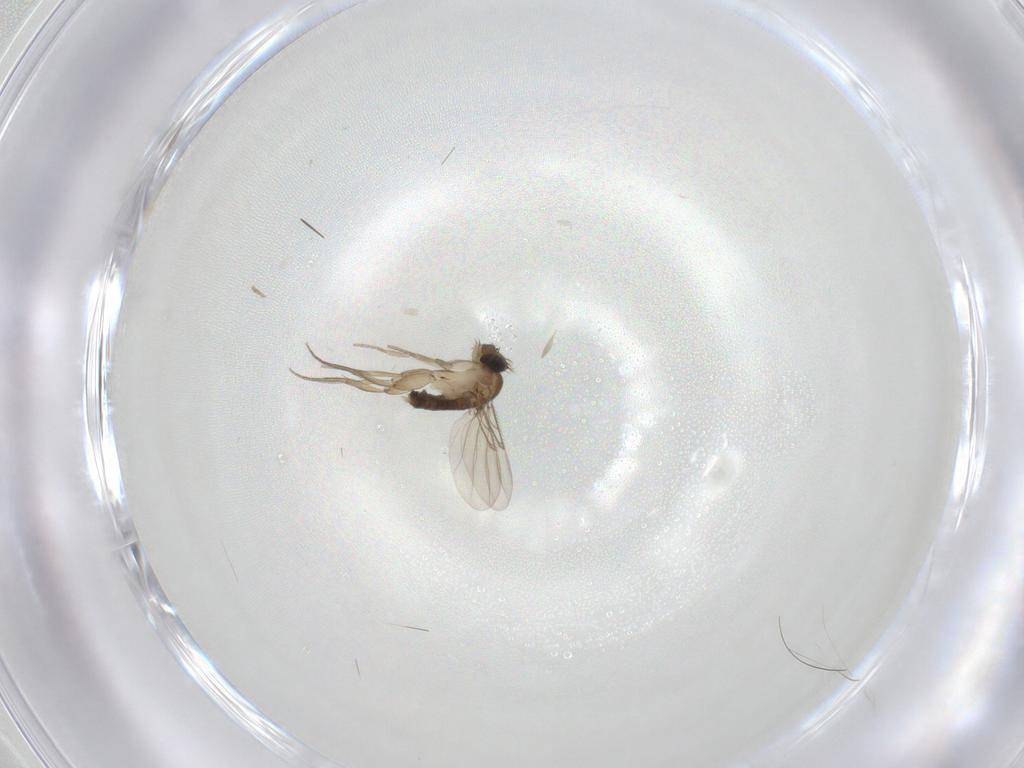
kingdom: Animalia
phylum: Arthropoda
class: Insecta
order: Diptera
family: Phoridae
